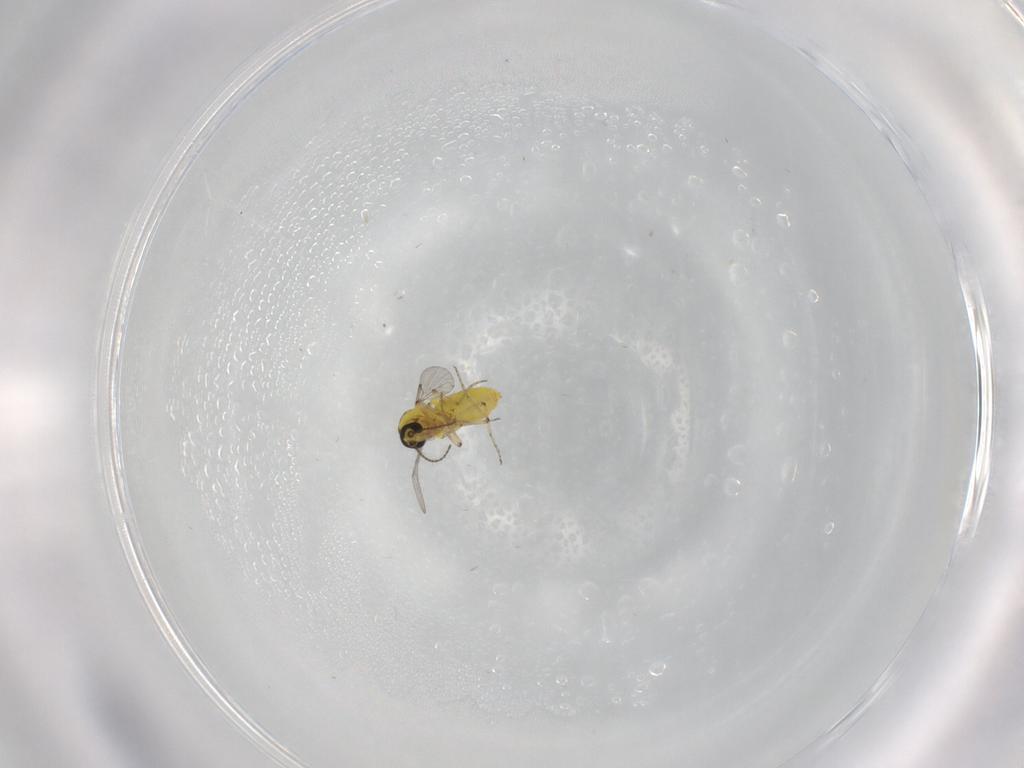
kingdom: Animalia
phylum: Arthropoda
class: Insecta
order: Diptera
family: Ceratopogonidae
